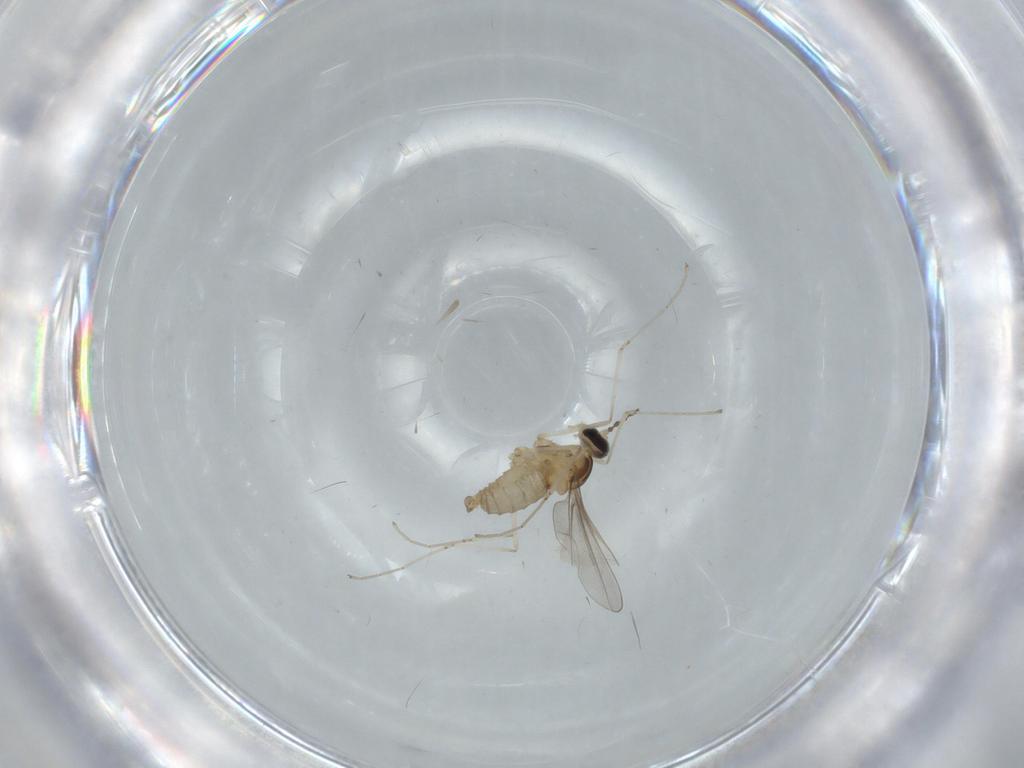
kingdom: Animalia
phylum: Arthropoda
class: Insecta
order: Diptera
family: Cecidomyiidae
